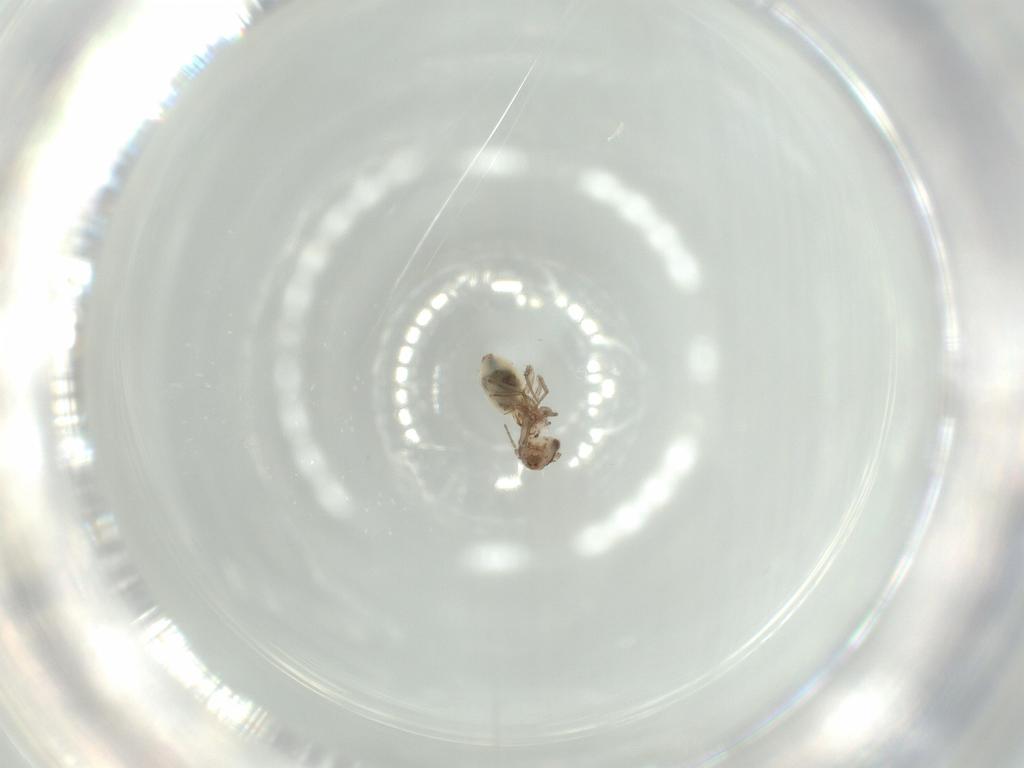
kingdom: Animalia
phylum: Arthropoda
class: Insecta
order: Psocodea
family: Lepidopsocidae
